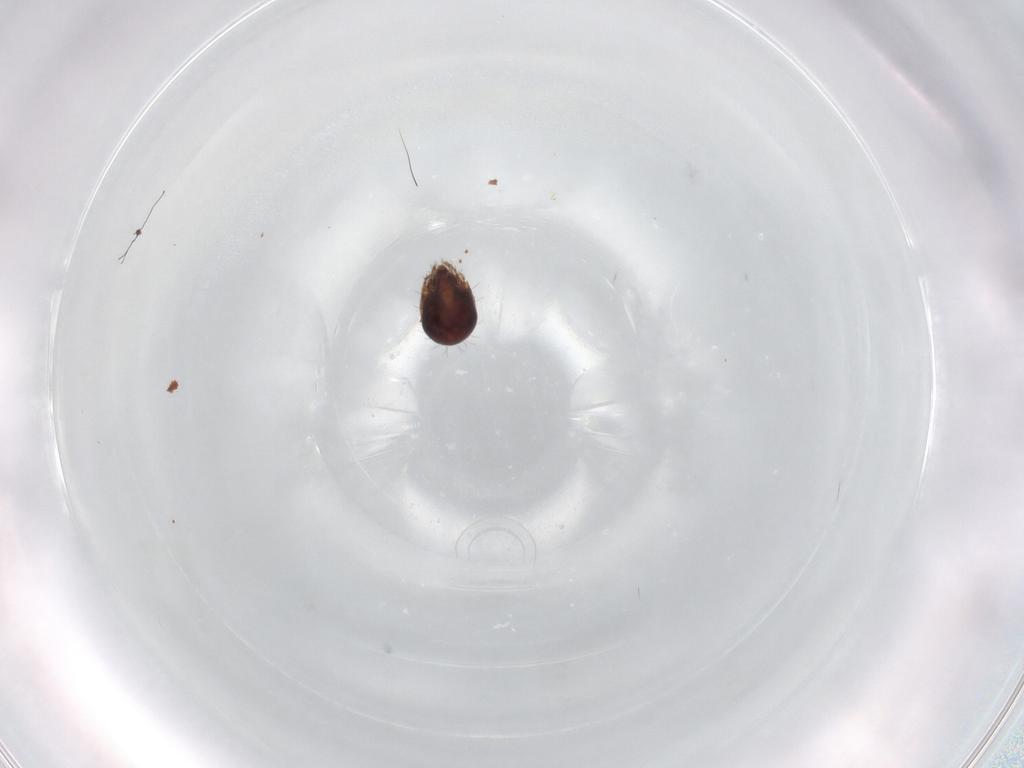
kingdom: Animalia
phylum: Arthropoda
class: Arachnida
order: Sarcoptiformes
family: Humerobatidae
